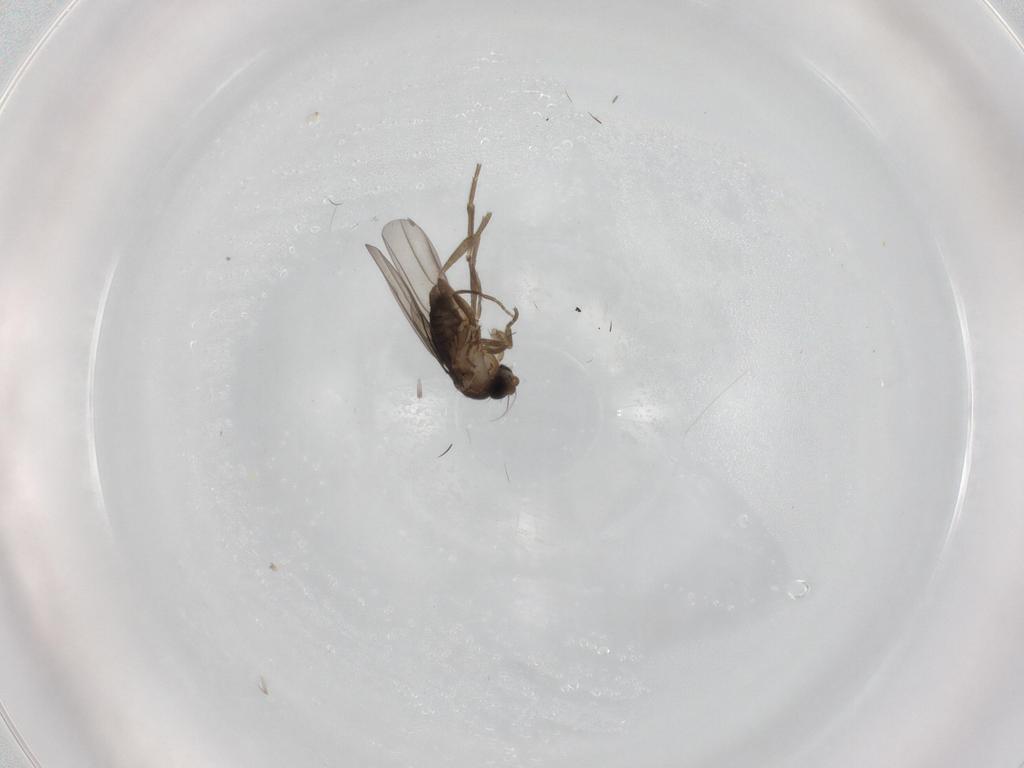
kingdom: Animalia
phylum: Arthropoda
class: Insecta
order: Diptera
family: Phoridae
